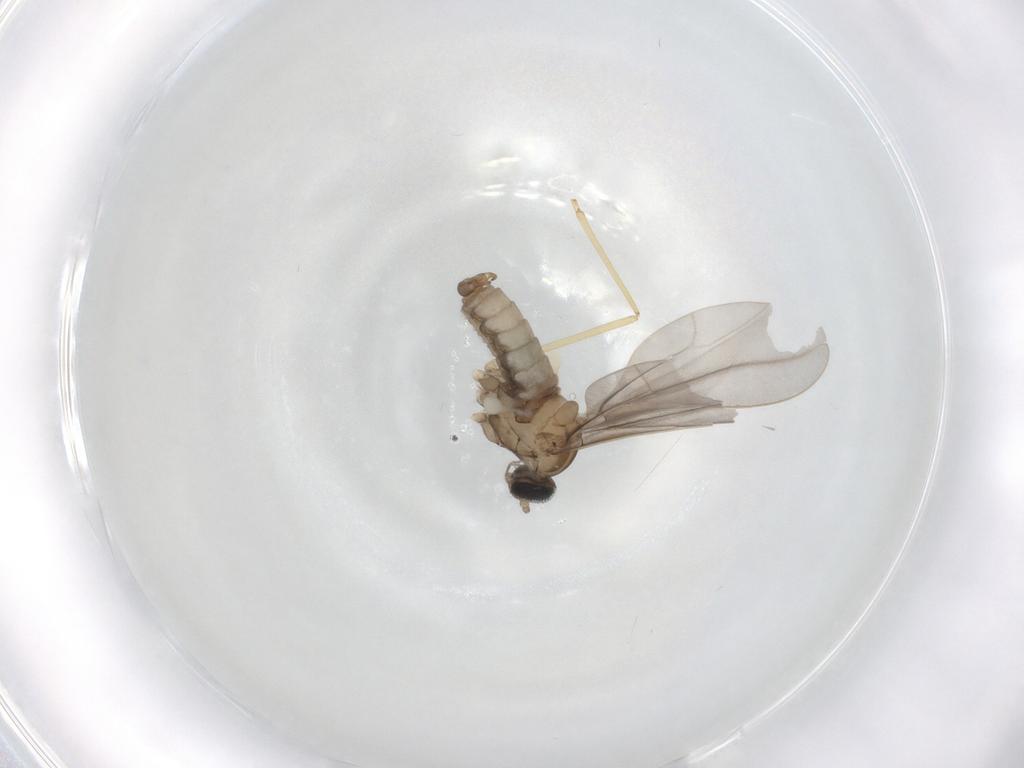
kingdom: Animalia
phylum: Arthropoda
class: Insecta
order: Diptera
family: Cecidomyiidae
